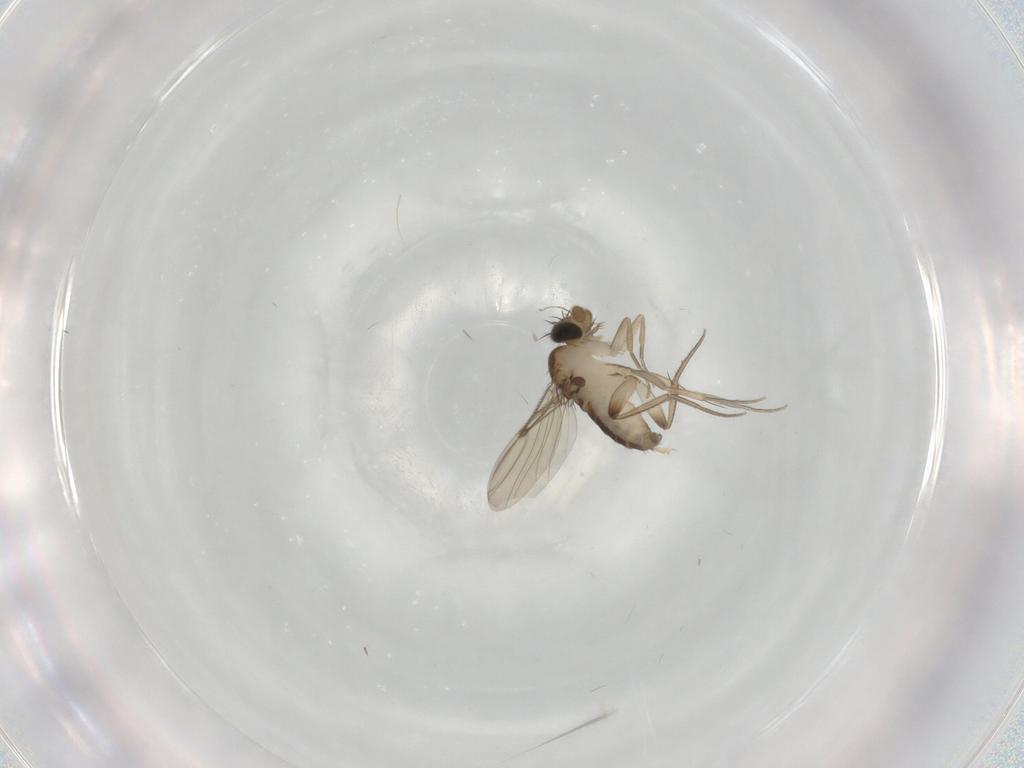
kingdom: Animalia
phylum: Arthropoda
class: Insecta
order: Diptera
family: Phoridae
